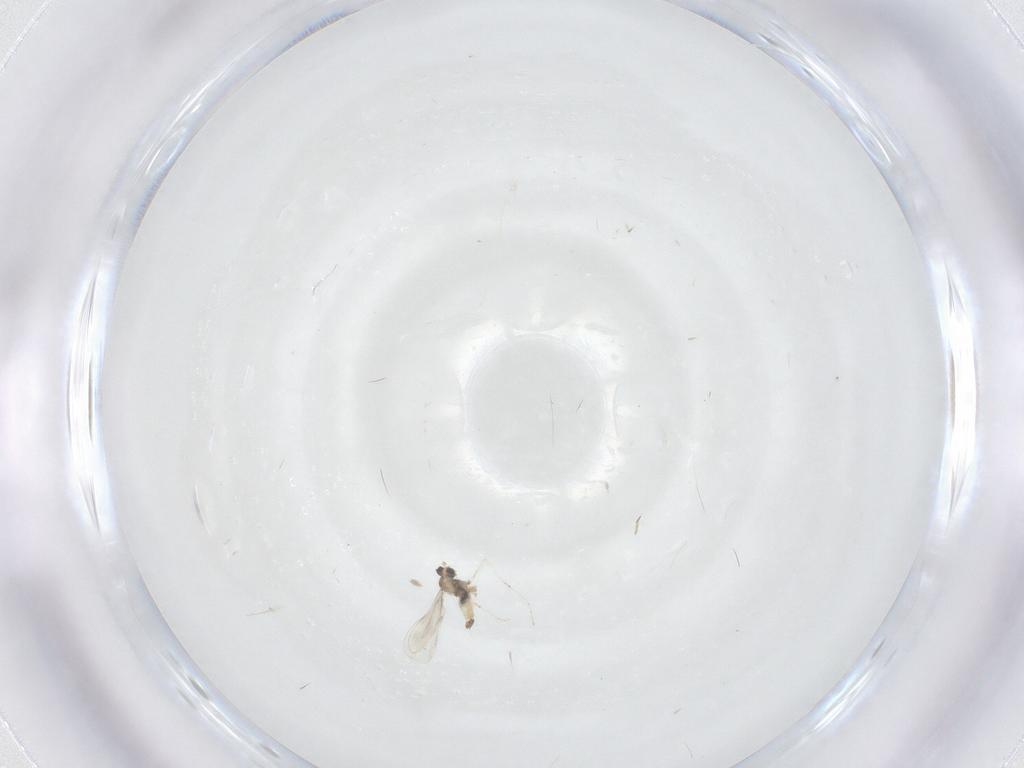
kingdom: Animalia
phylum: Arthropoda
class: Insecta
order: Diptera
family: Cecidomyiidae
